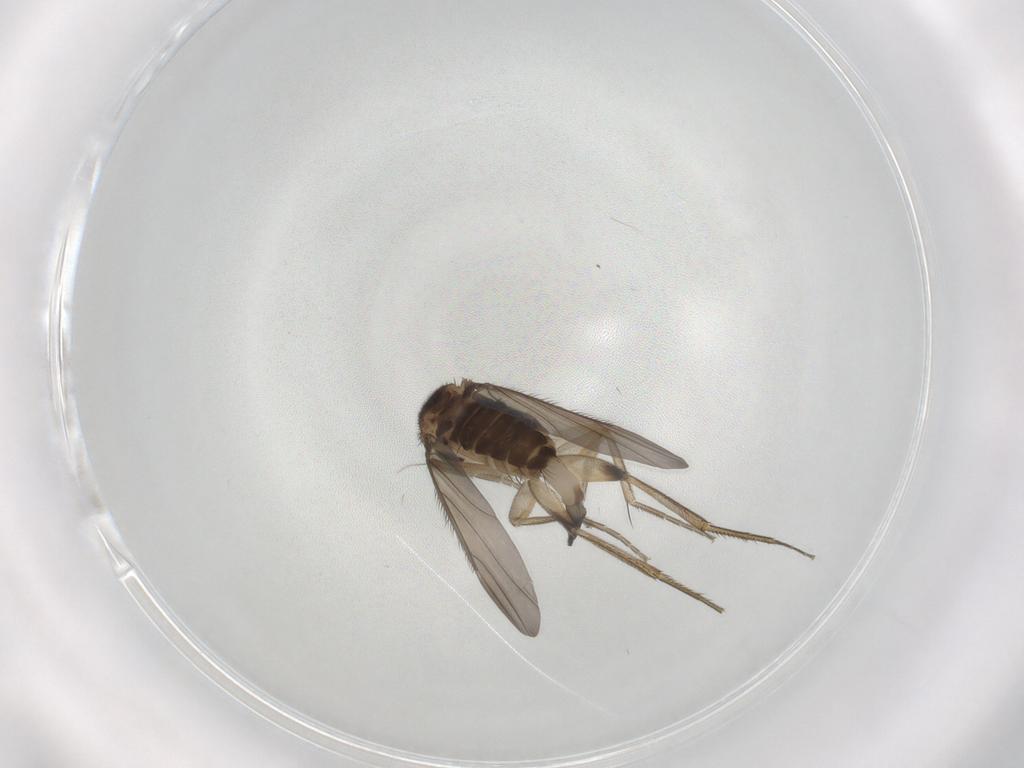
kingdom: Animalia
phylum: Arthropoda
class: Insecta
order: Diptera
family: Phoridae
